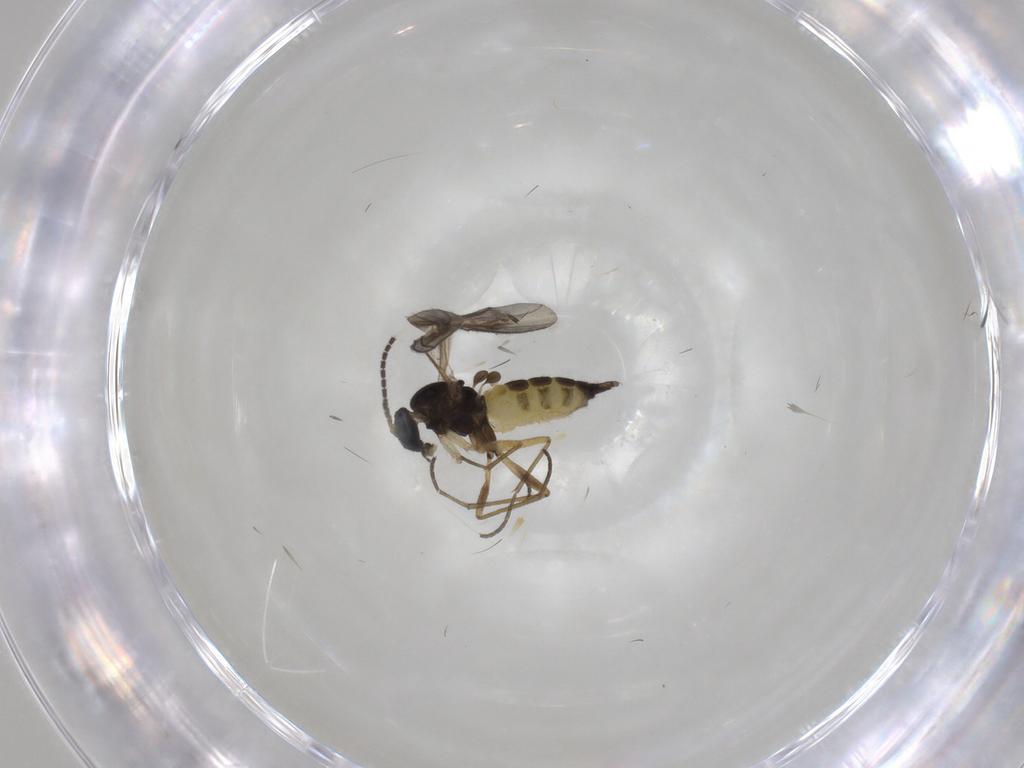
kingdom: Animalia
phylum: Arthropoda
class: Insecta
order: Diptera
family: Sciaridae
